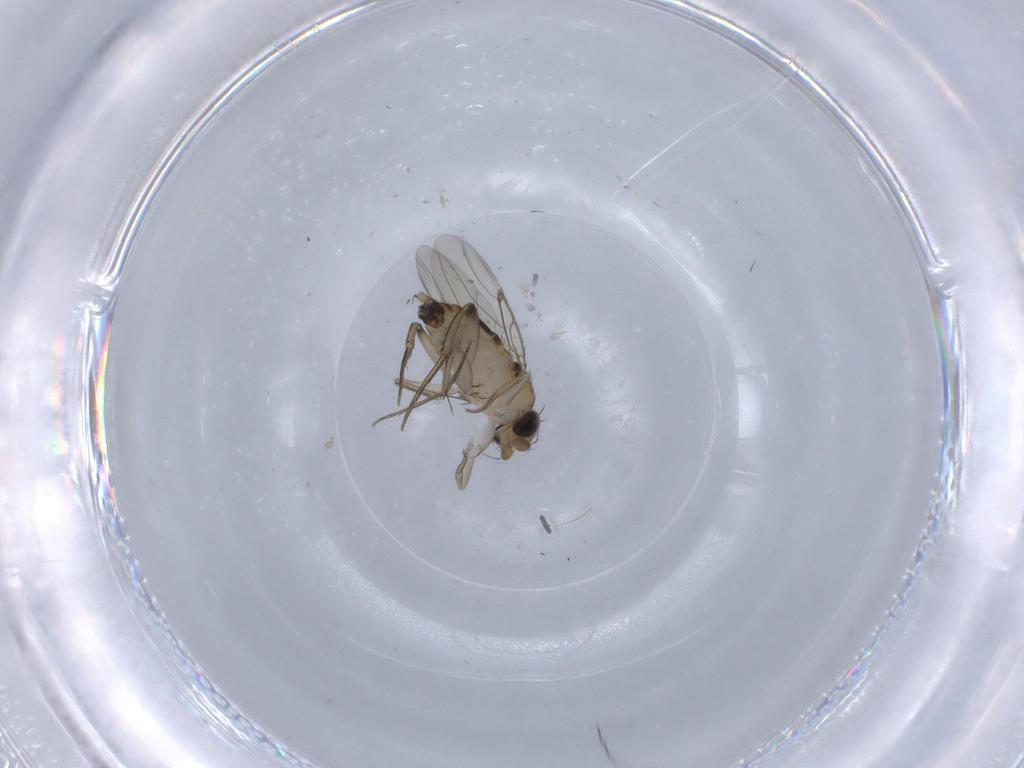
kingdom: Animalia
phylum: Arthropoda
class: Insecta
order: Diptera
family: Phoridae
